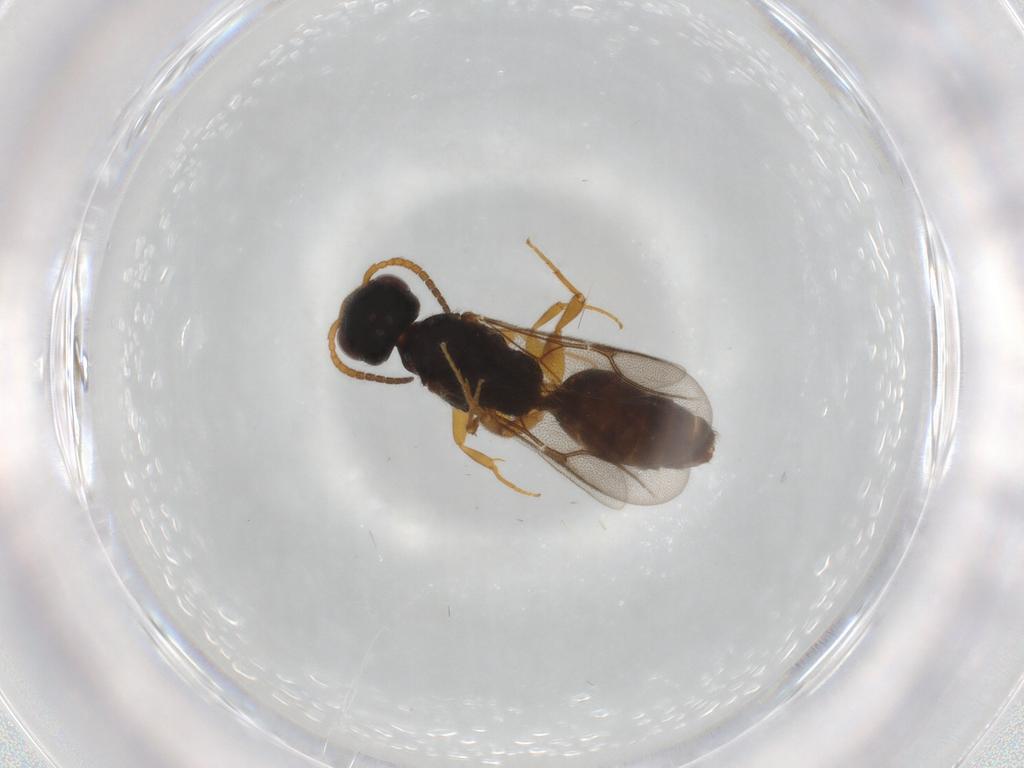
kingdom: Animalia
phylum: Arthropoda
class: Insecta
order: Hymenoptera
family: Bethylidae
